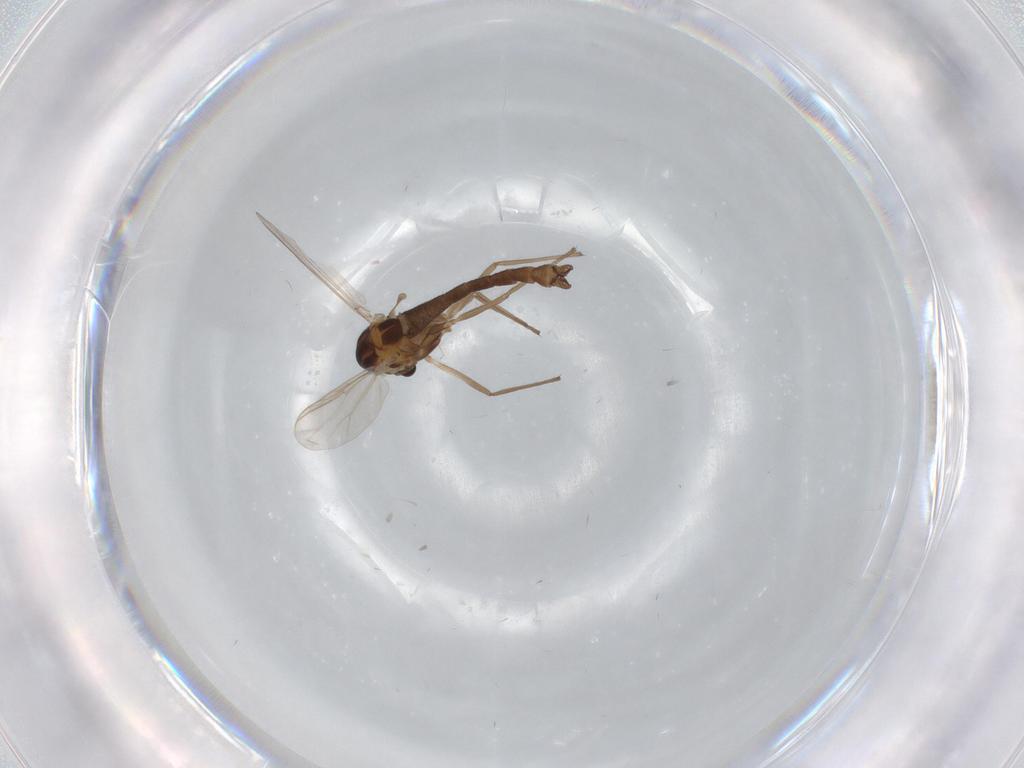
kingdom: Animalia
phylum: Arthropoda
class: Insecta
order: Diptera
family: Chironomidae
